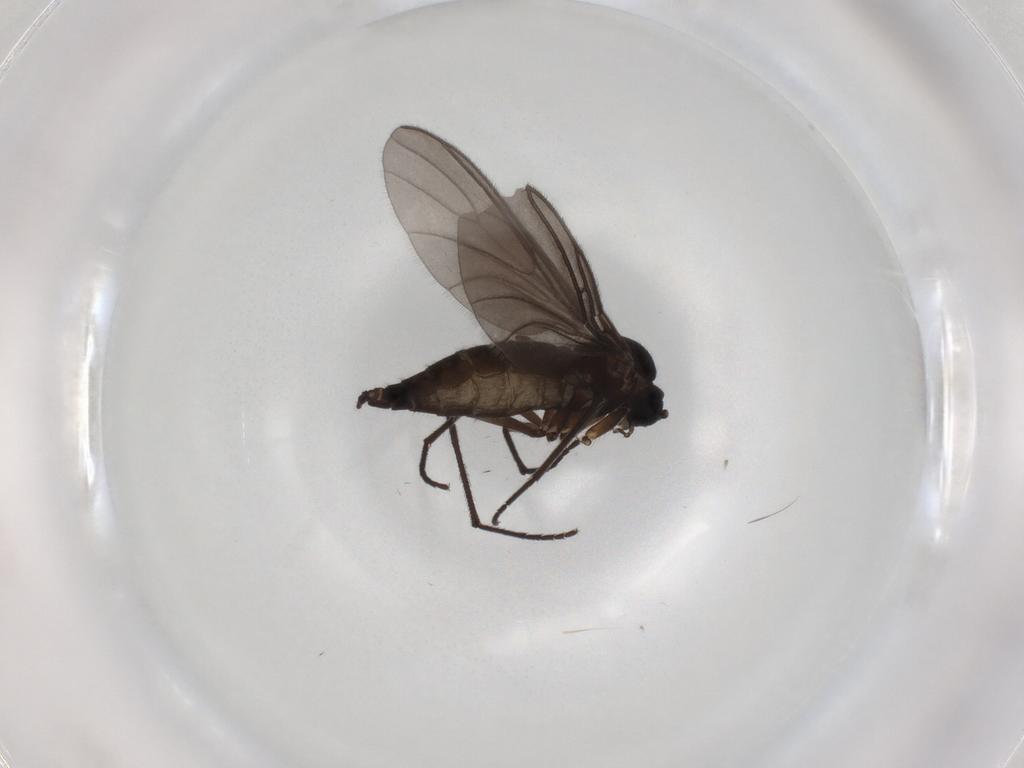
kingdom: Animalia
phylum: Arthropoda
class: Insecta
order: Diptera
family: Sciaridae
